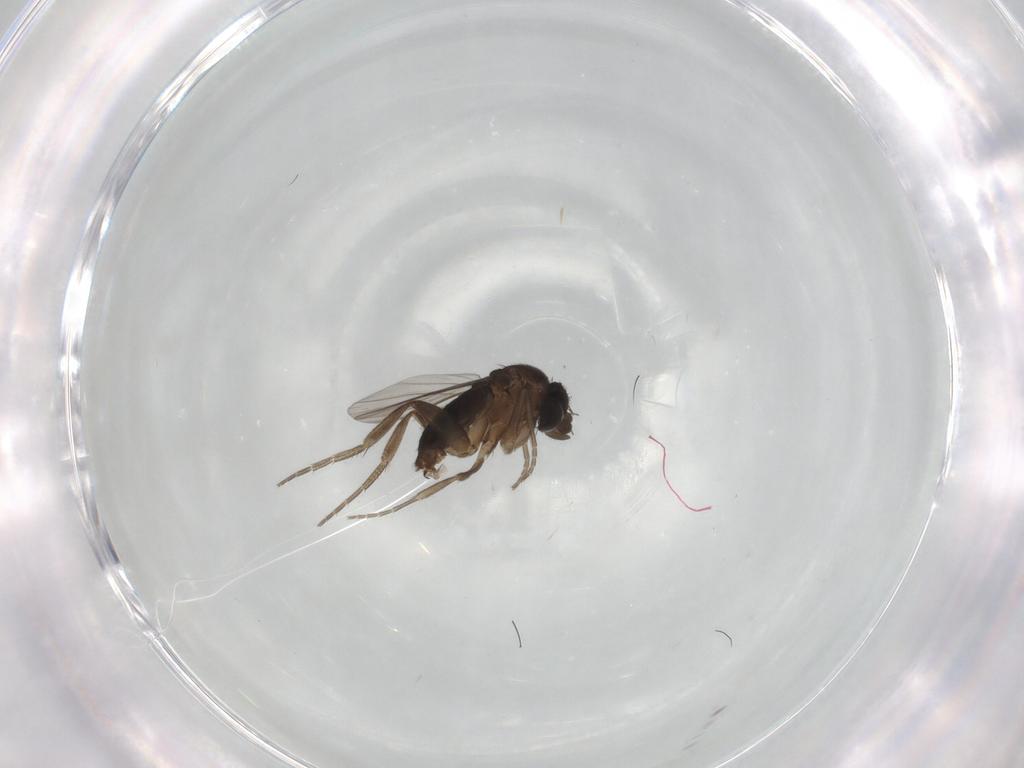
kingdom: Animalia
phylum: Arthropoda
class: Insecta
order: Diptera
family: Phoridae
